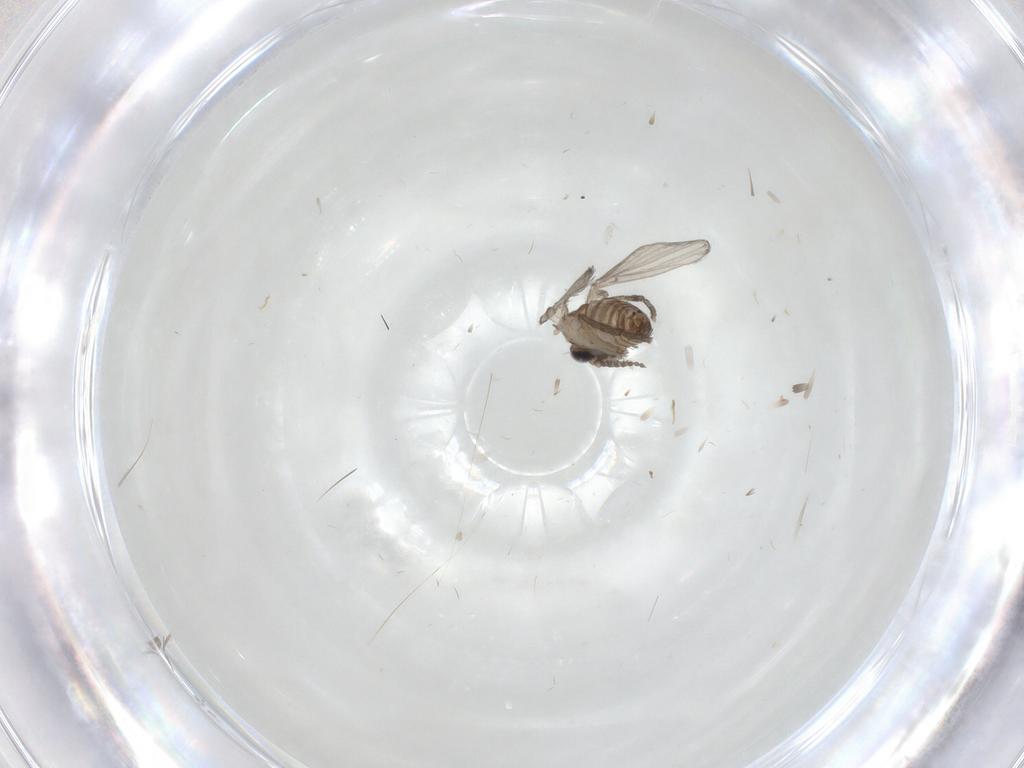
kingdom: Animalia
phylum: Arthropoda
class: Insecta
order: Diptera
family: Psychodidae
